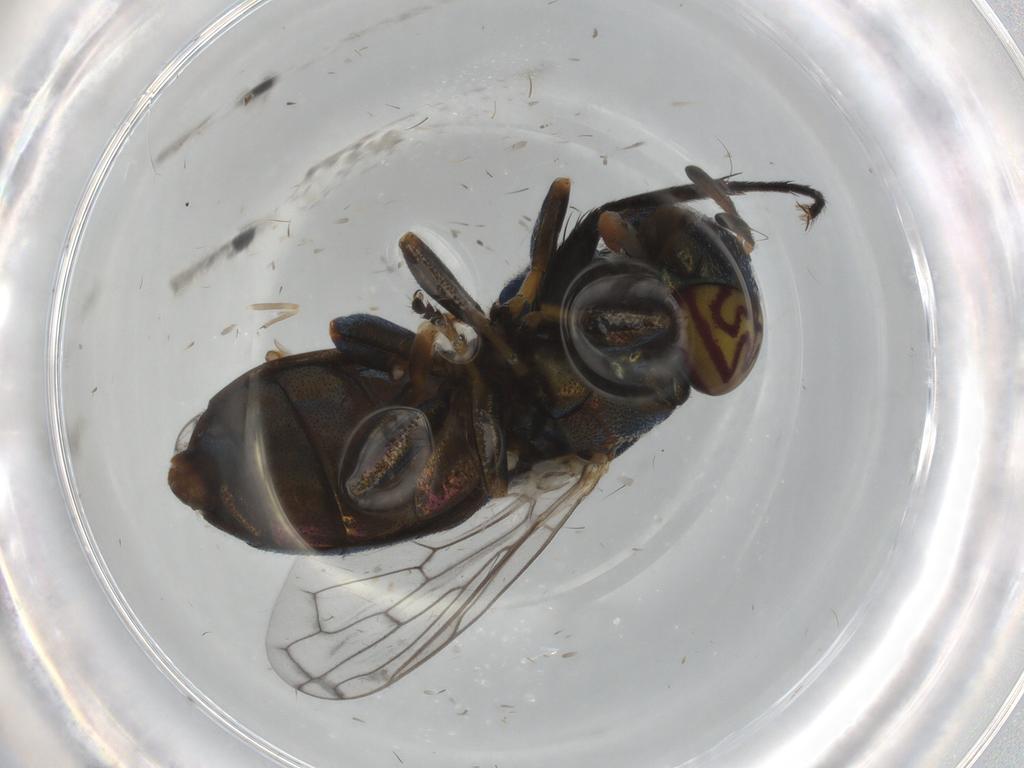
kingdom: Animalia
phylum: Arthropoda
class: Insecta
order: Diptera
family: Syrphidae
